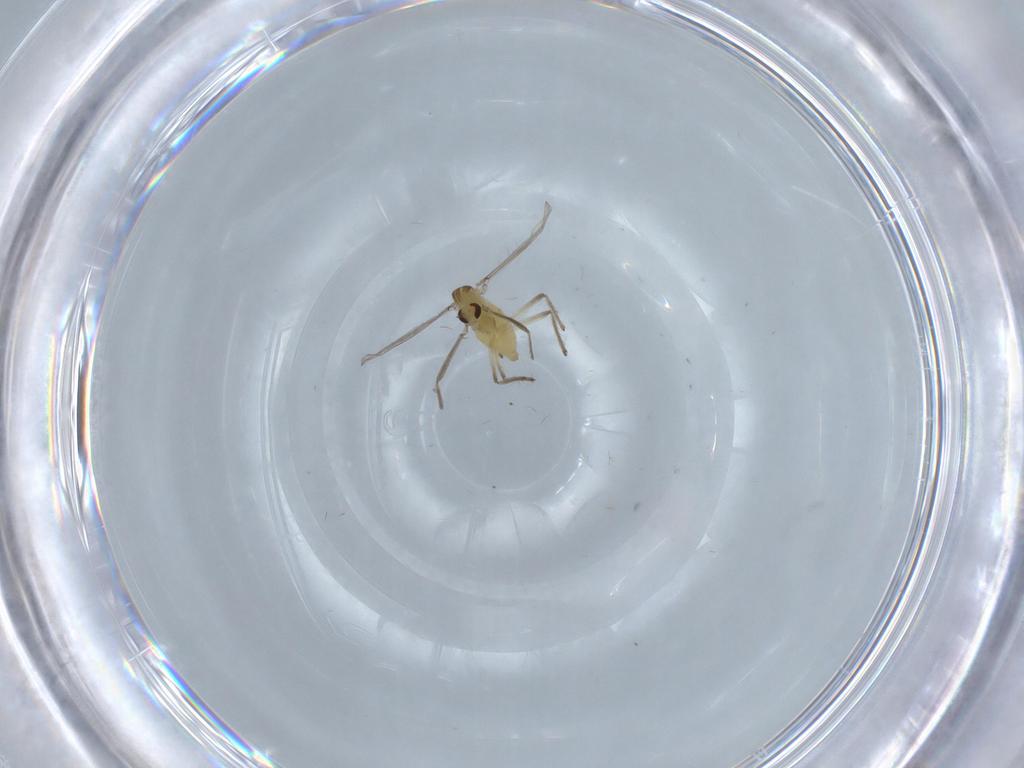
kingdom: Animalia
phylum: Arthropoda
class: Insecta
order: Diptera
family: Chironomidae
